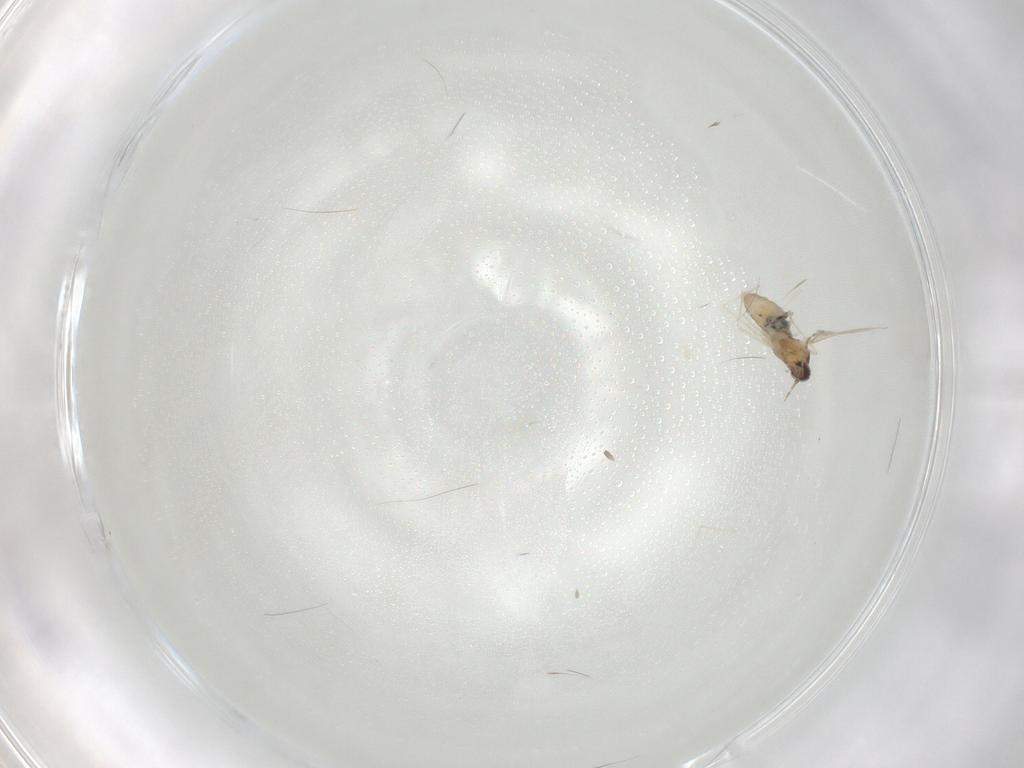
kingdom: Animalia
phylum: Arthropoda
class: Insecta
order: Diptera
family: Cecidomyiidae
